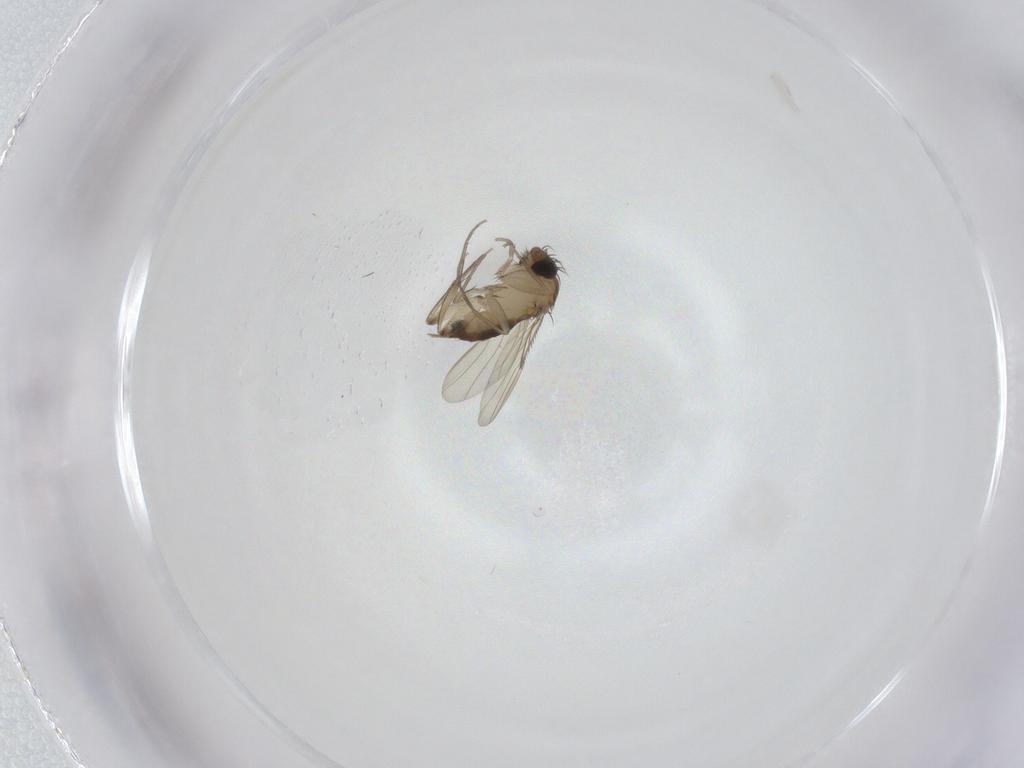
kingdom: Animalia
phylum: Arthropoda
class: Insecta
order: Diptera
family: Phoridae
